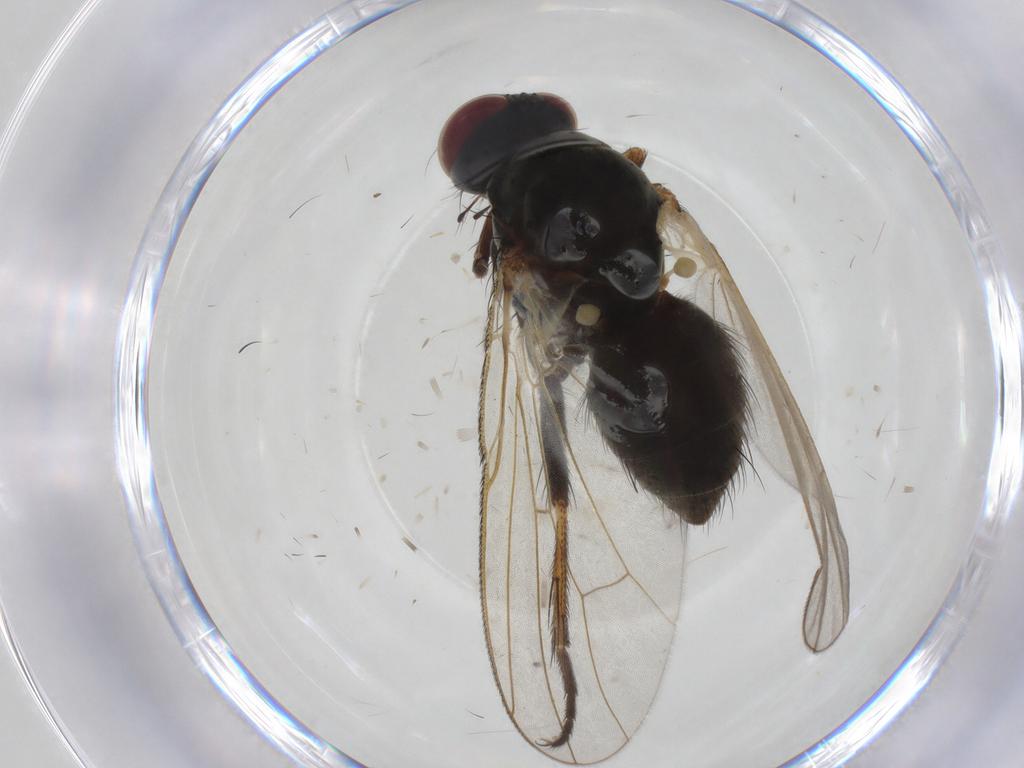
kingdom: Animalia
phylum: Arthropoda
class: Insecta
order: Diptera
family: Muscidae
